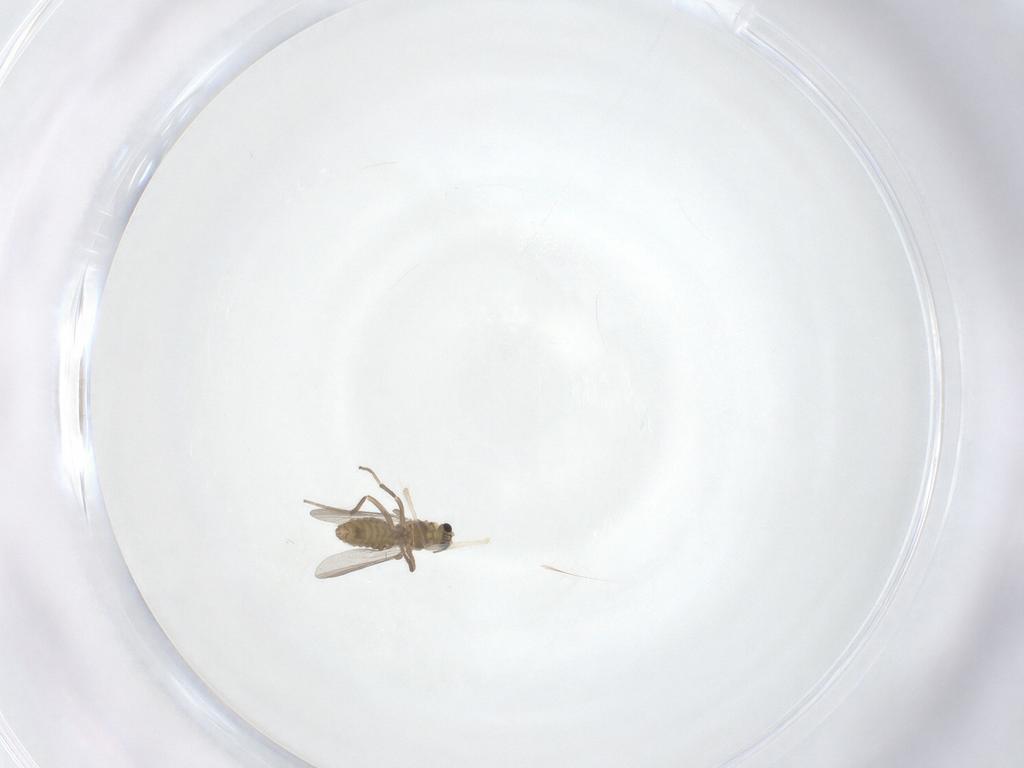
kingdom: Animalia
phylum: Arthropoda
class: Insecta
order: Diptera
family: Chironomidae
